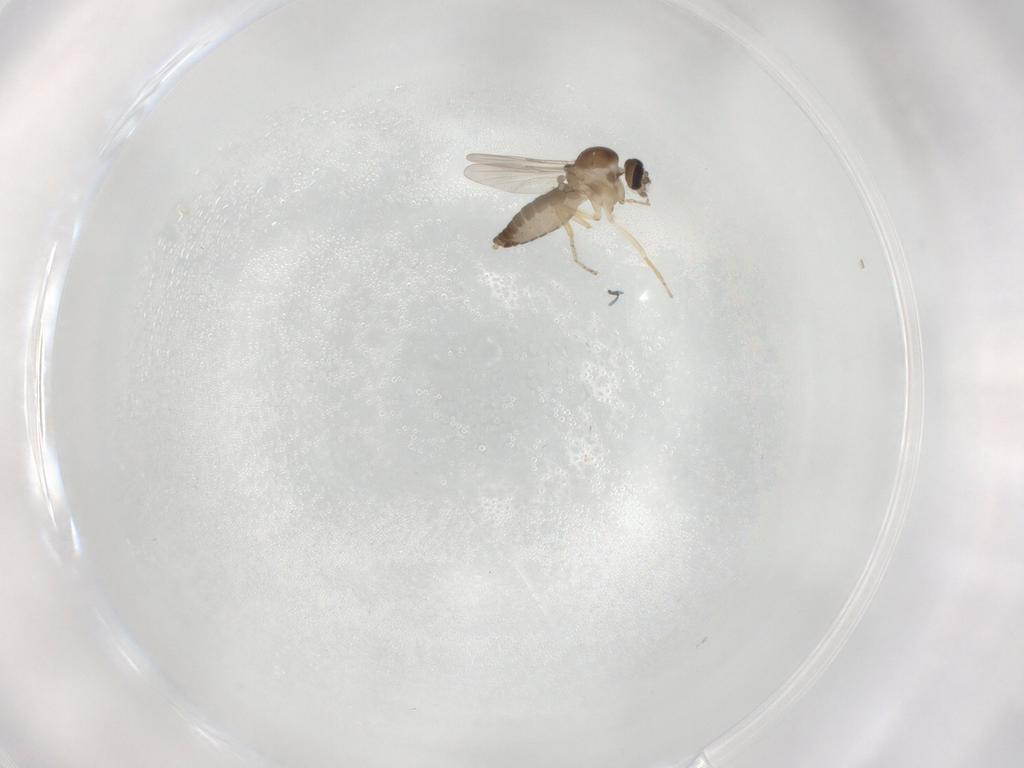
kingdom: Animalia
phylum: Arthropoda
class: Insecta
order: Diptera
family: Ceratopogonidae
